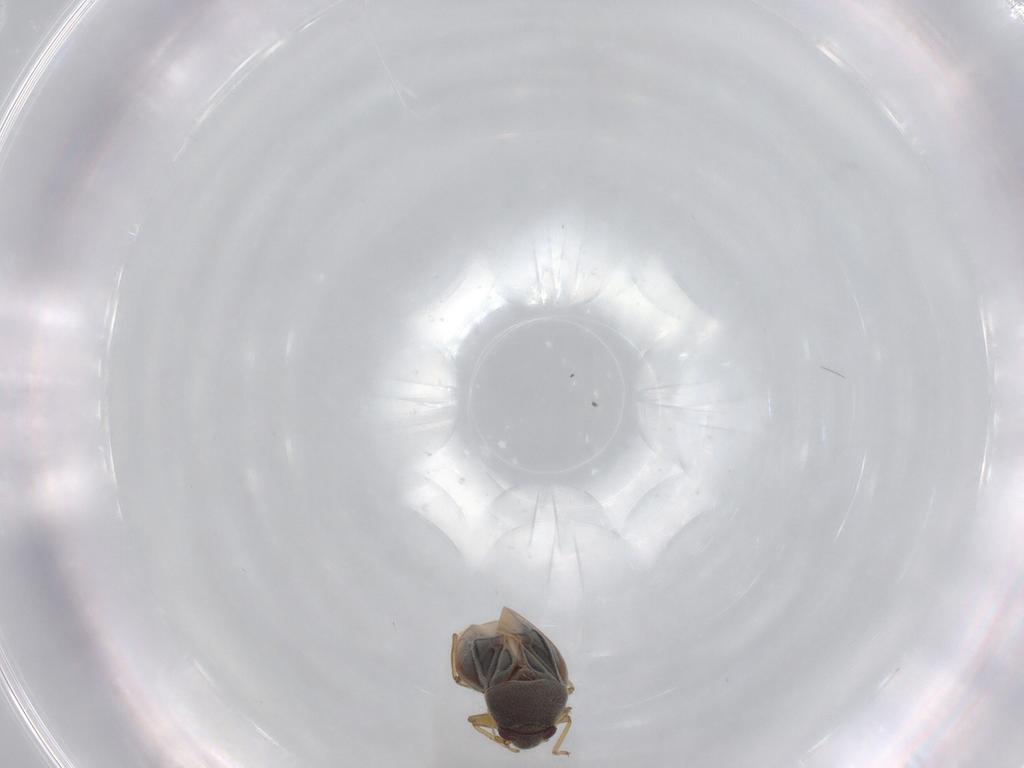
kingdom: Animalia
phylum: Arthropoda
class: Insecta
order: Hemiptera
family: Schizopteridae
